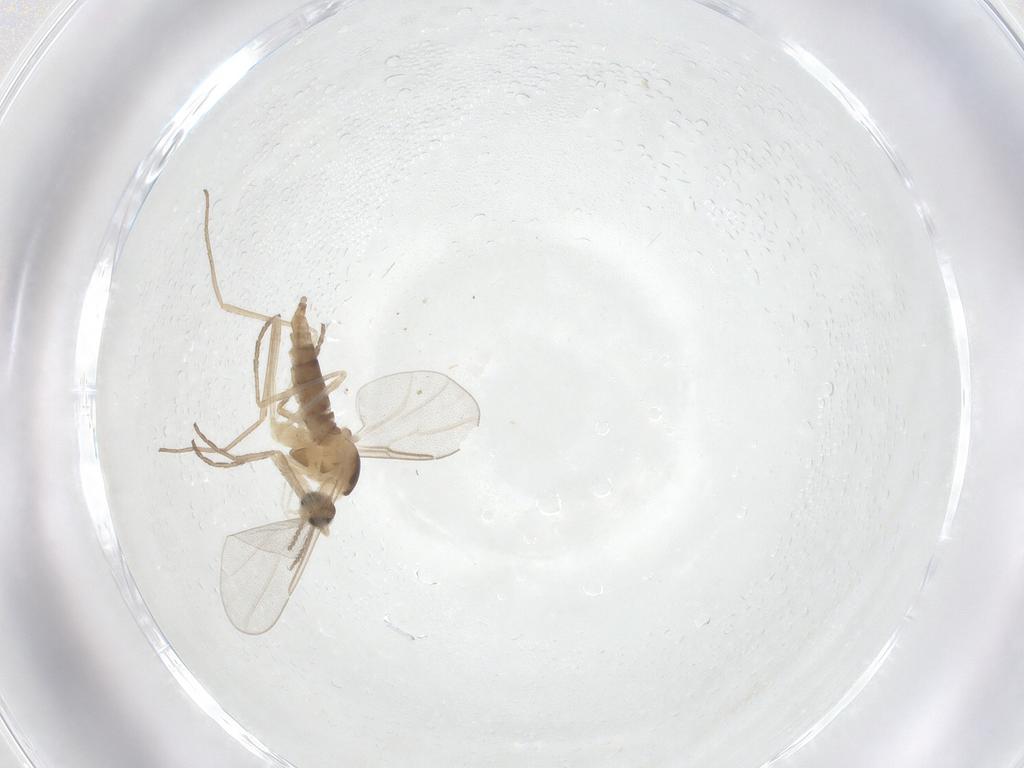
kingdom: Animalia
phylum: Arthropoda
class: Insecta
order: Diptera
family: Cecidomyiidae
